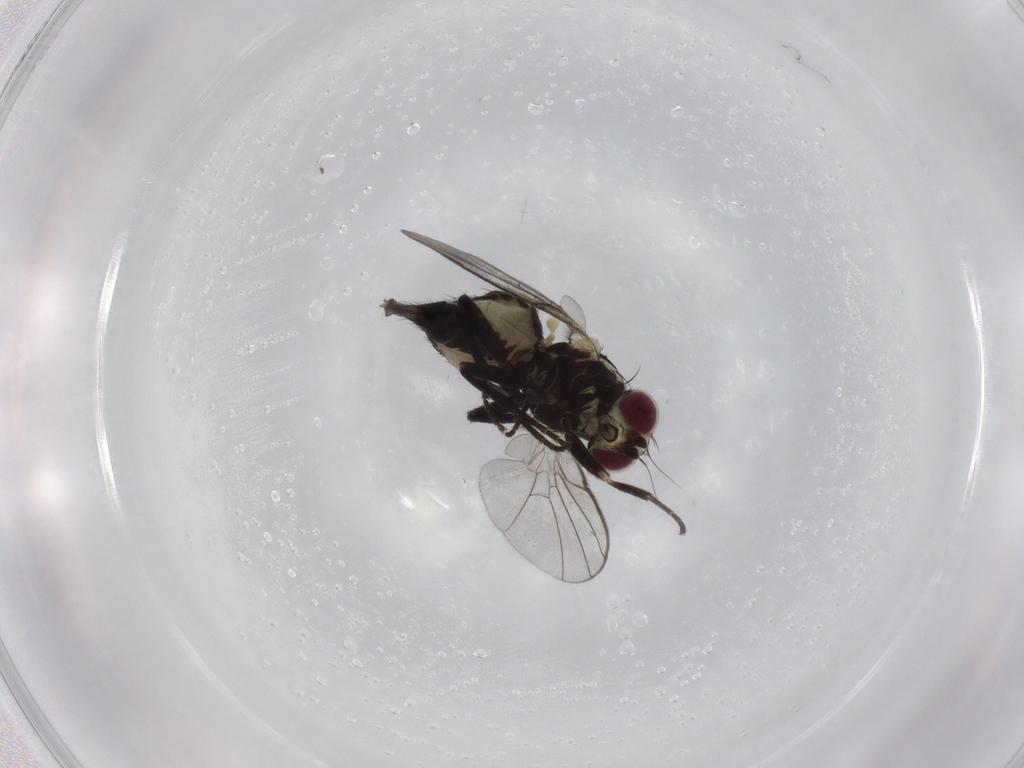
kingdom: Animalia
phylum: Arthropoda
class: Insecta
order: Diptera
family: Agromyzidae
